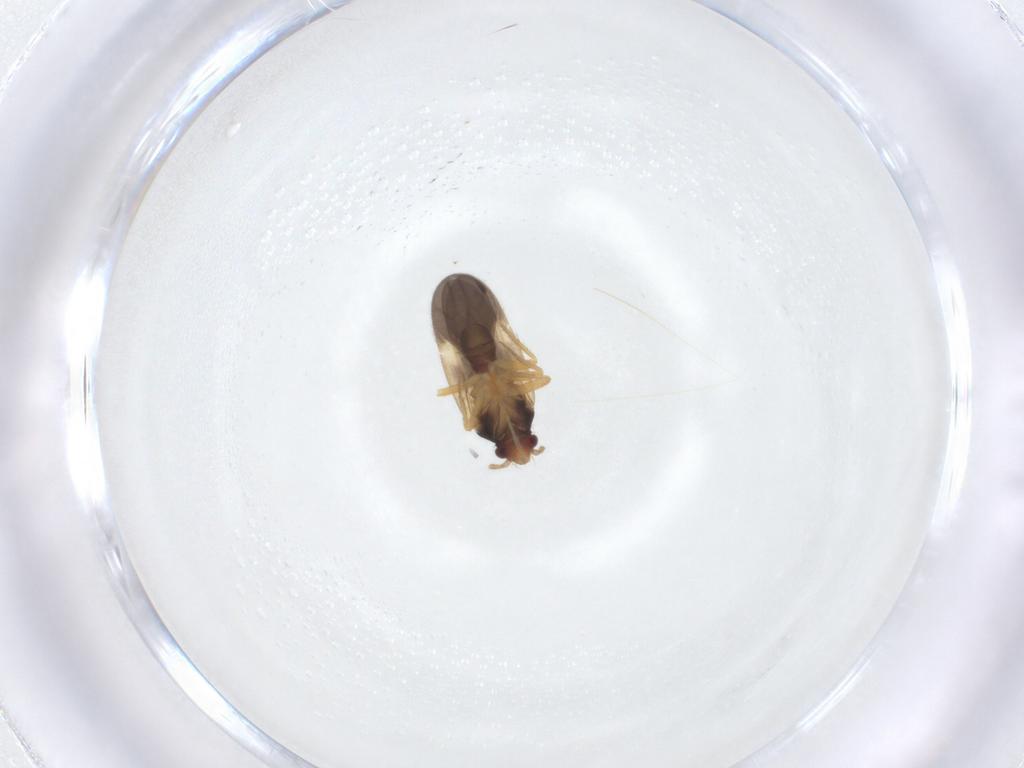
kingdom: Animalia
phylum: Arthropoda
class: Insecta
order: Hemiptera
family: Ceratocombidae
